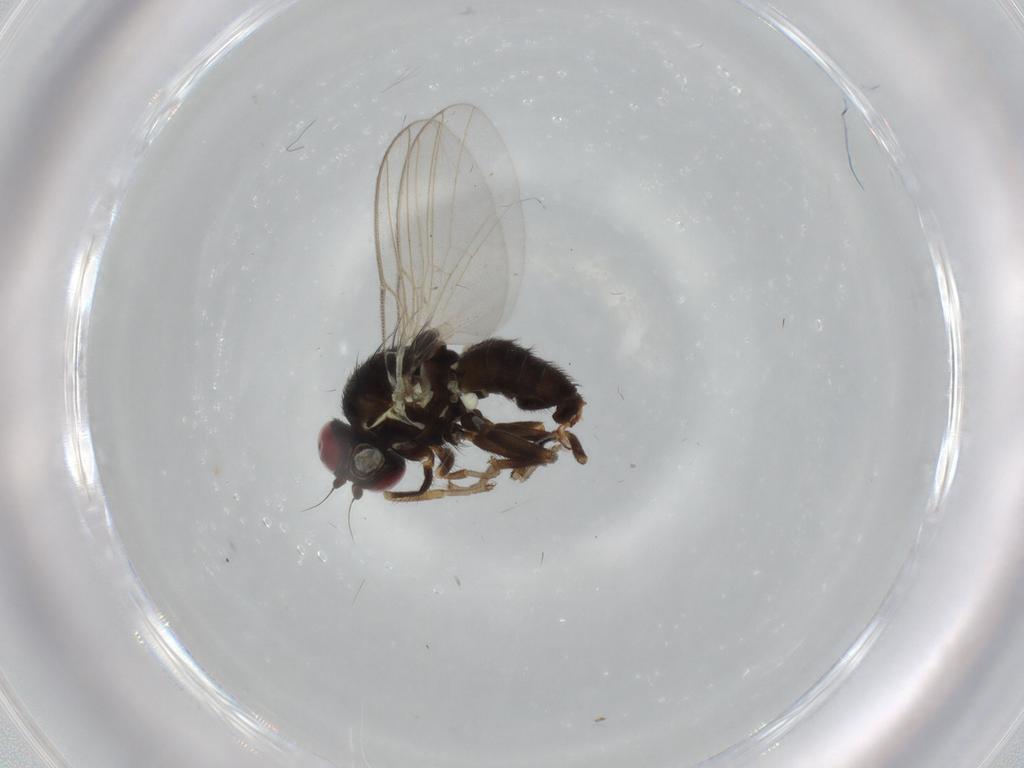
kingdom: Animalia
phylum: Arthropoda
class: Insecta
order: Diptera
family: Agromyzidae
